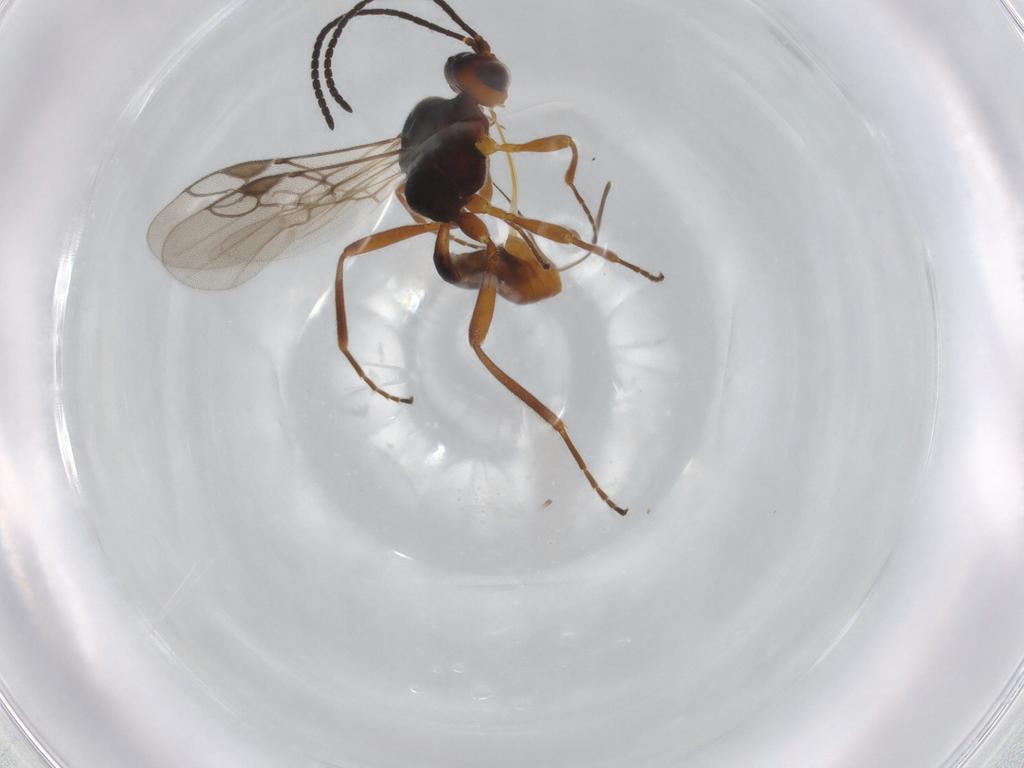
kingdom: Animalia
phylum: Arthropoda
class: Insecta
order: Hymenoptera
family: Braconidae
